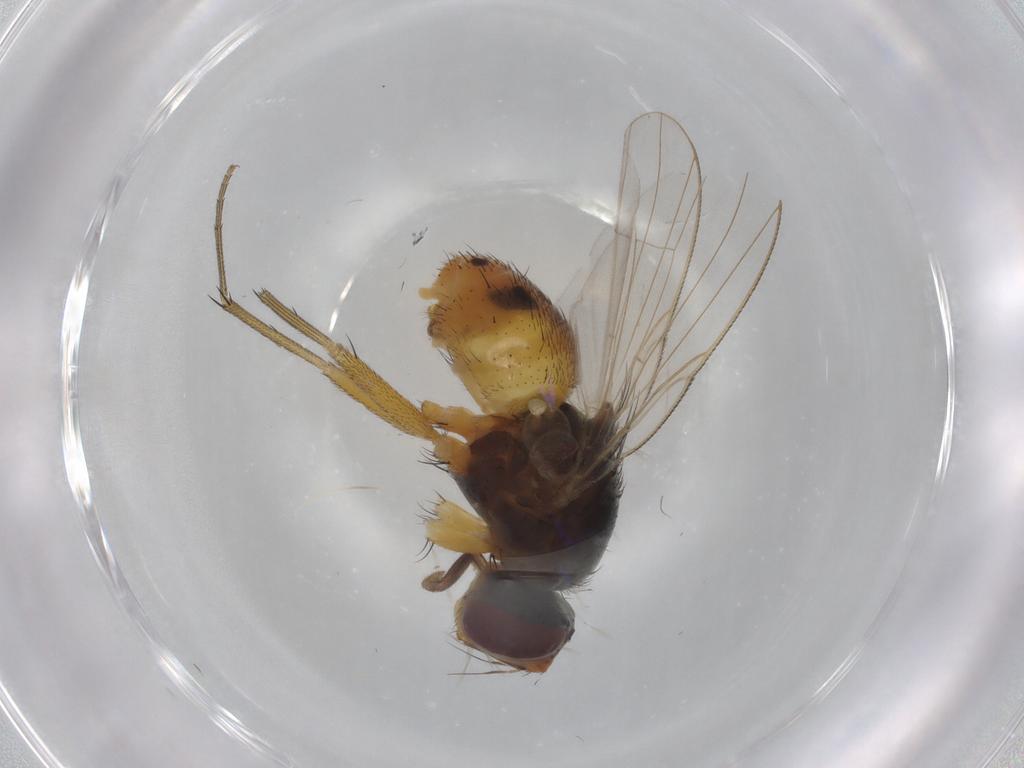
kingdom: Animalia
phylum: Arthropoda
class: Insecta
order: Diptera
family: Muscidae
